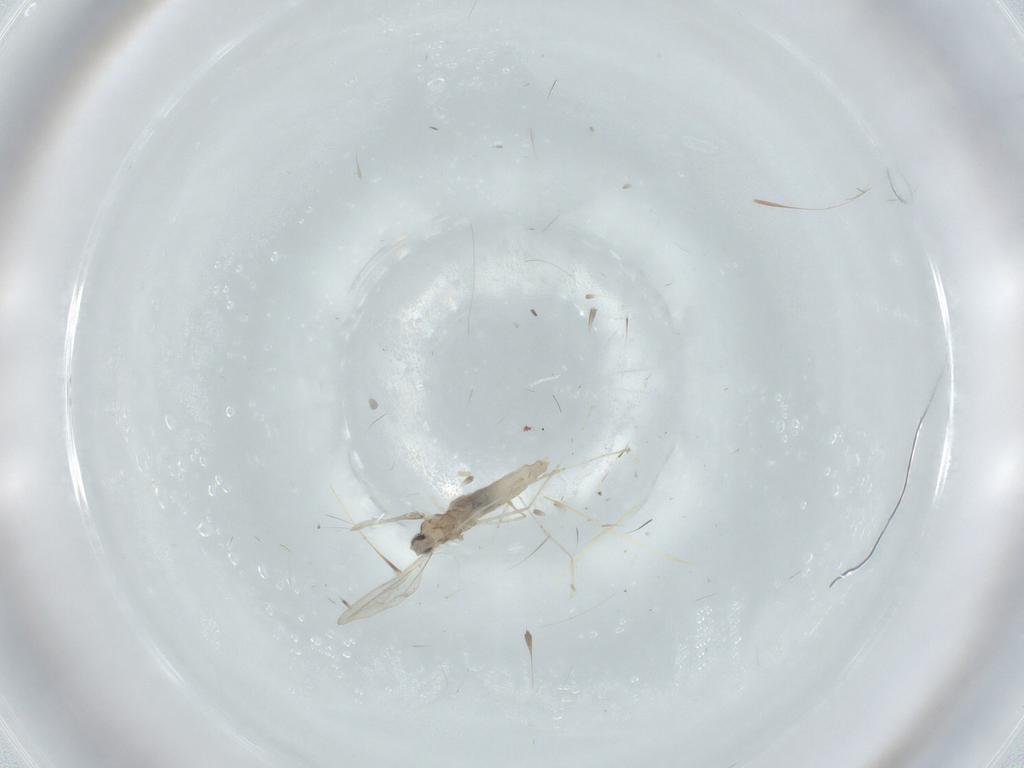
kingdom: Animalia
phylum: Arthropoda
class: Insecta
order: Diptera
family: Cecidomyiidae
